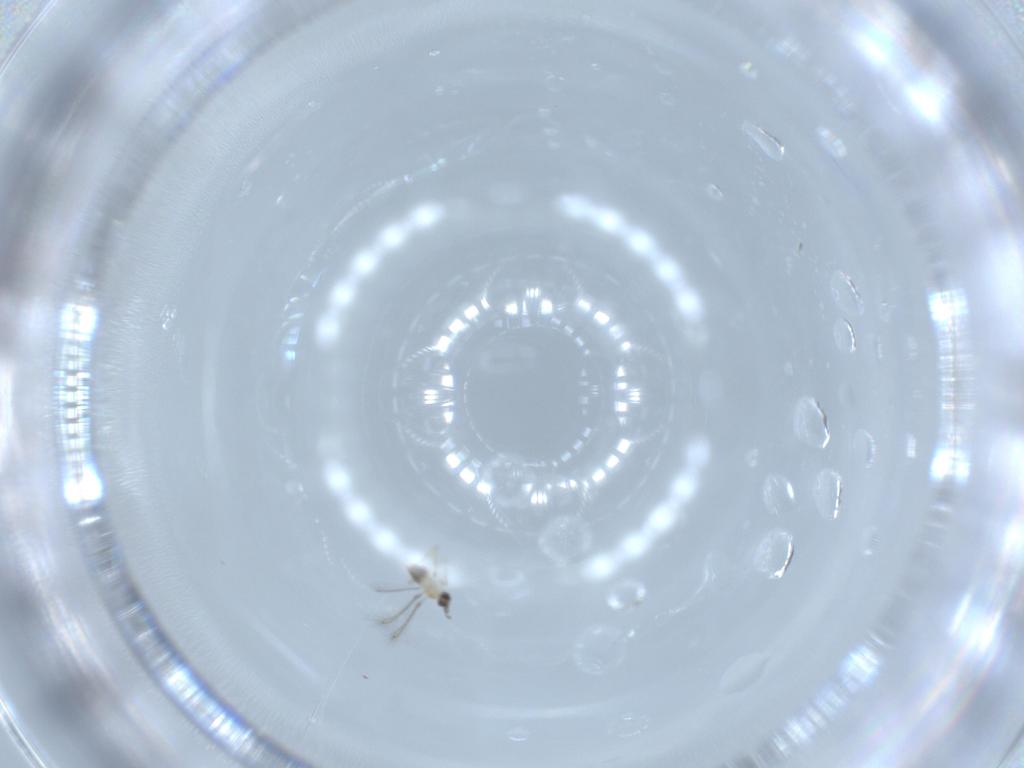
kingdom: Animalia
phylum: Arthropoda
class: Insecta
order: Hymenoptera
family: Mymaridae
